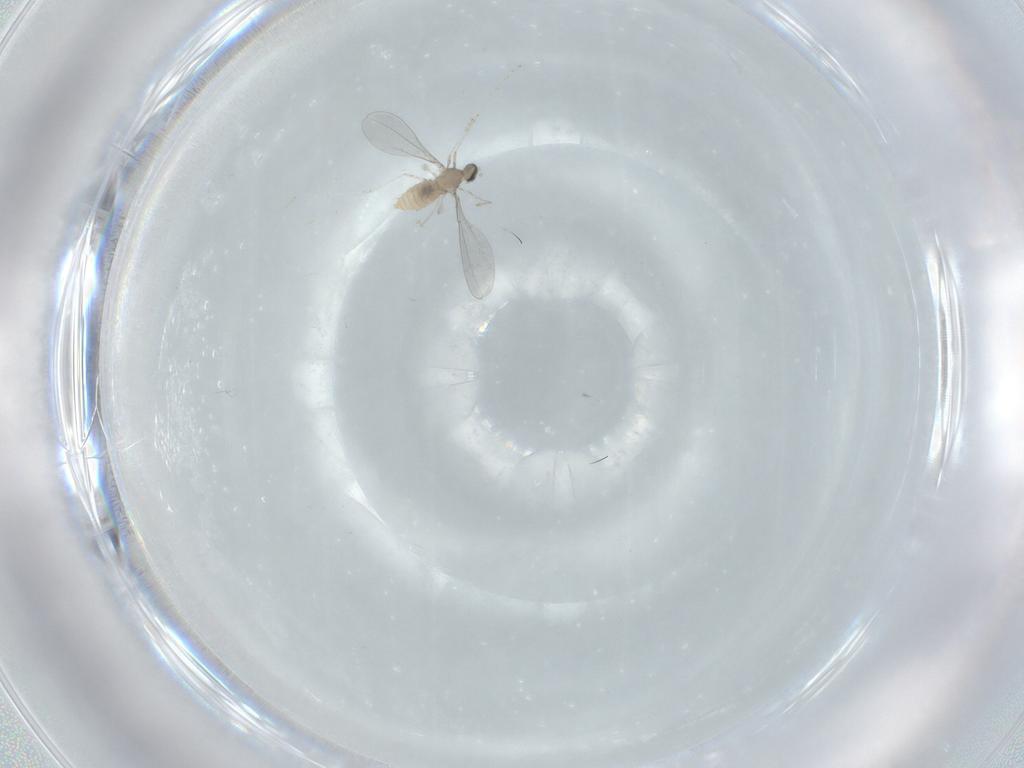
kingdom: Animalia
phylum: Arthropoda
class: Insecta
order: Diptera
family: Cecidomyiidae
